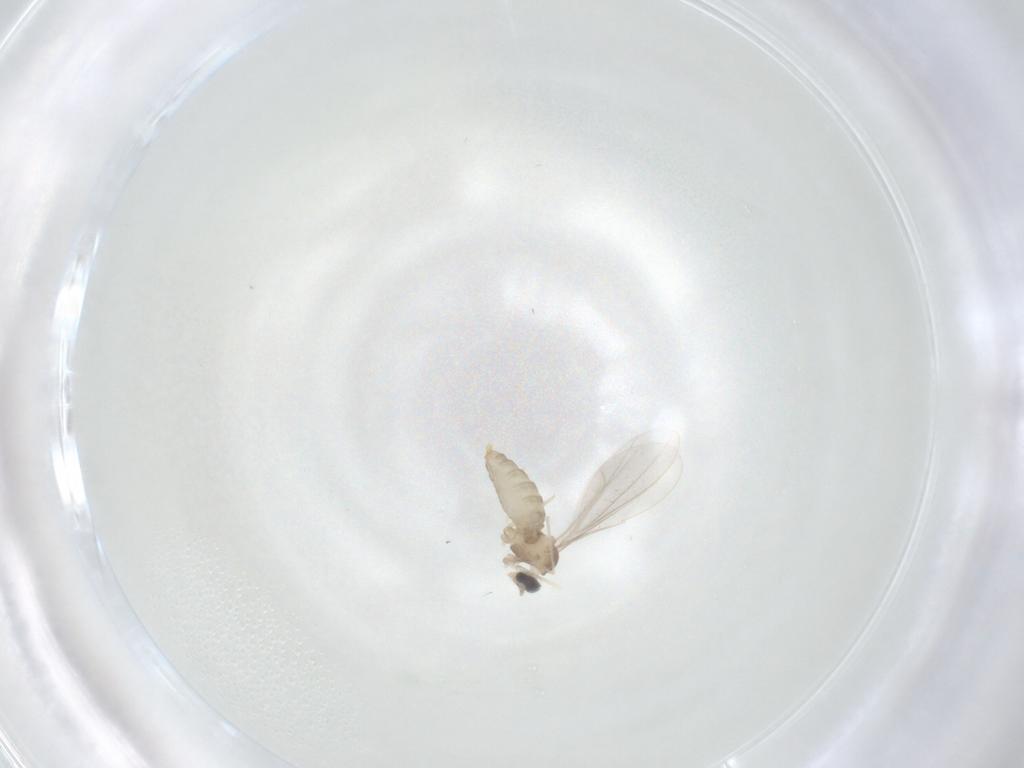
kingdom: Animalia
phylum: Arthropoda
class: Insecta
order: Diptera
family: Cecidomyiidae
